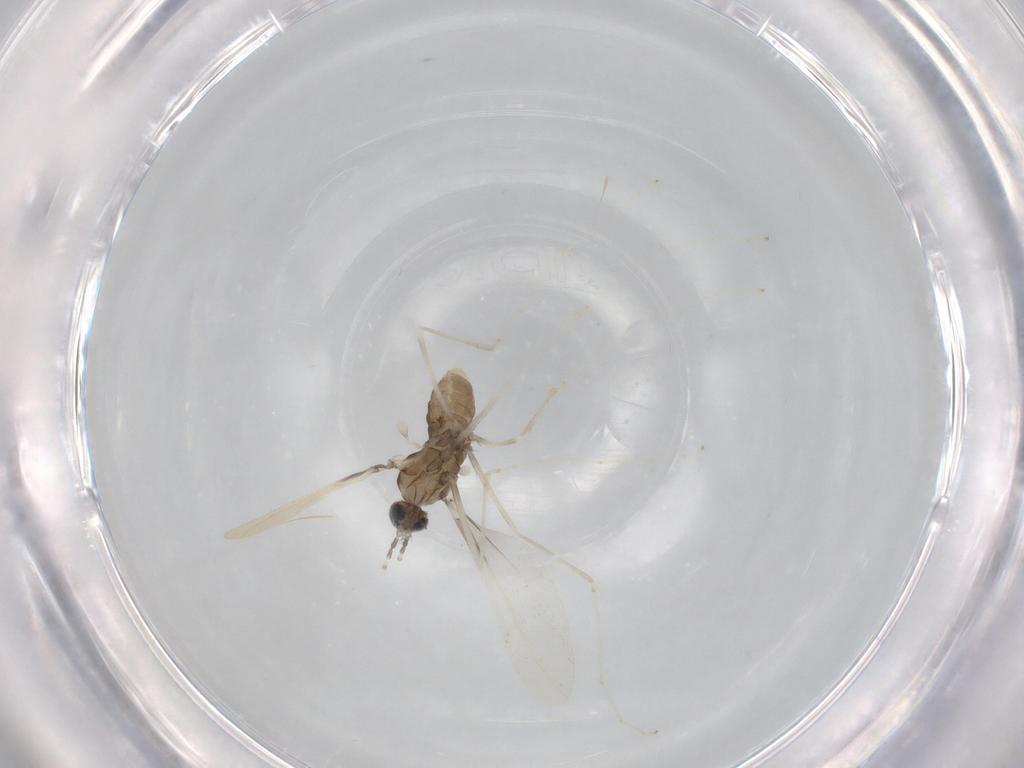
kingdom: Animalia
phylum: Arthropoda
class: Insecta
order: Diptera
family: Cecidomyiidae
